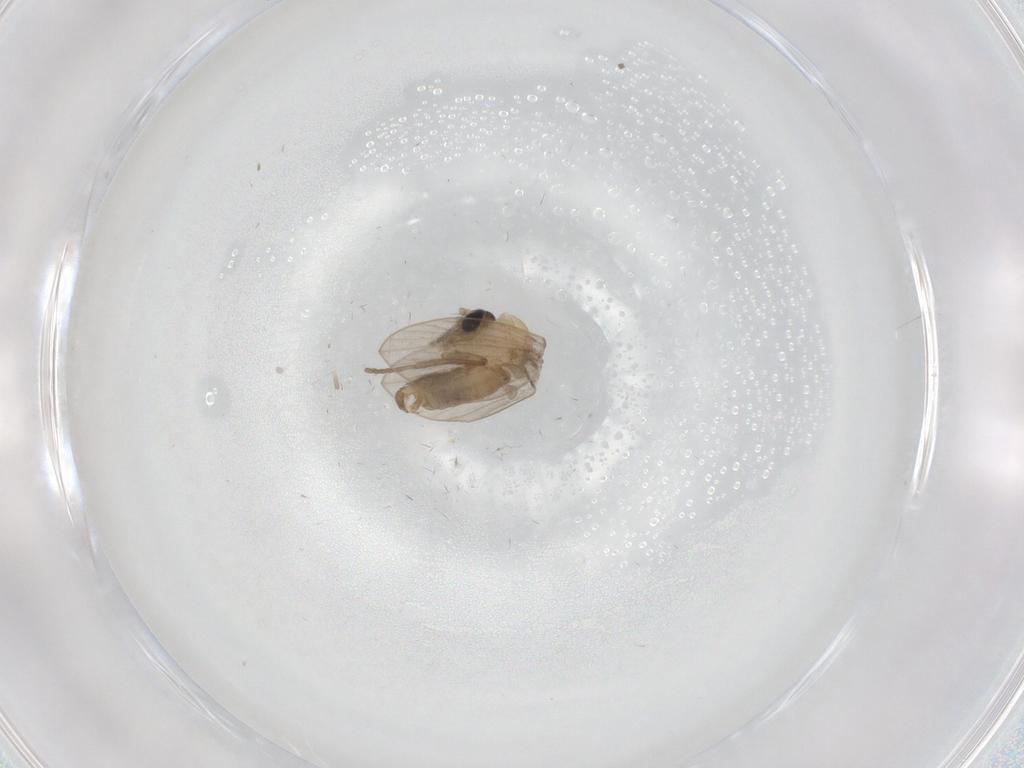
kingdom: Animalia
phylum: Arthropoda
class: Insecta
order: Diptera
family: Psychodidae
